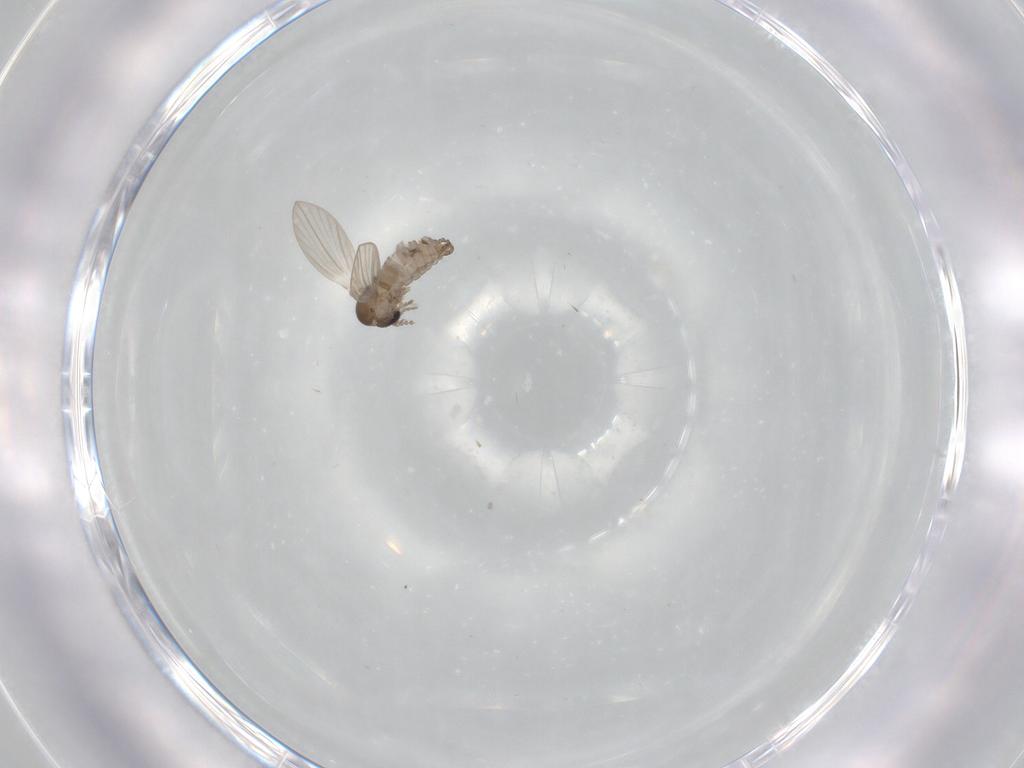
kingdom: Animalia
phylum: Arthropoda
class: Insecta
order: Diptera
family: Psychodidae
